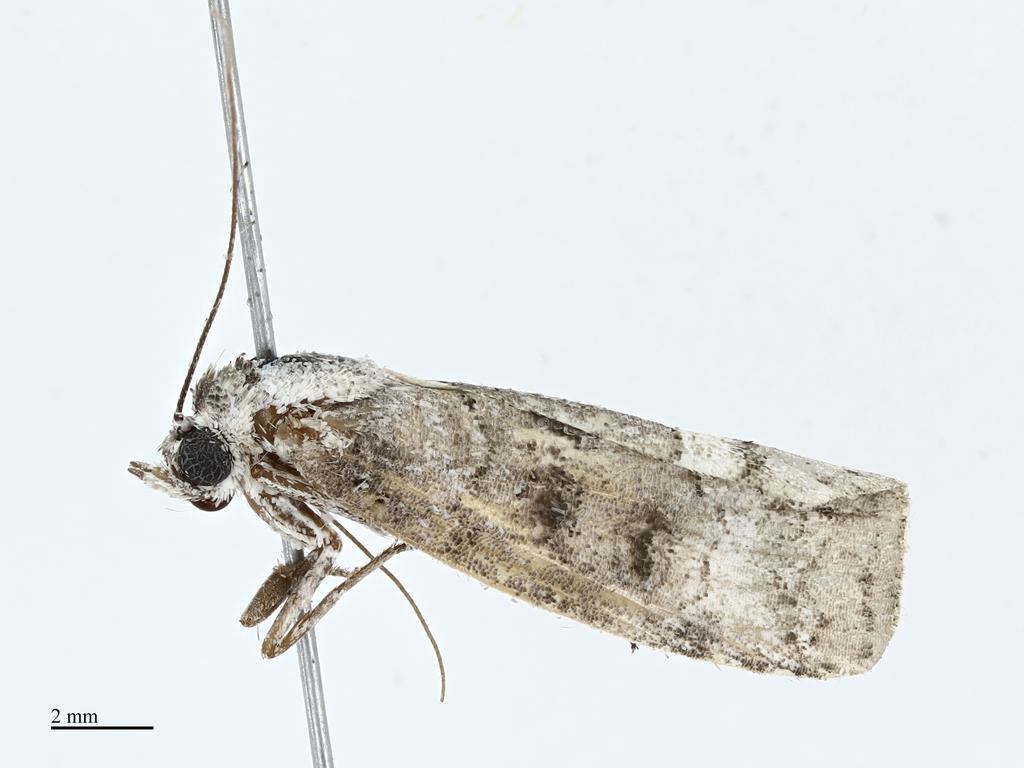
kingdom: Animalia
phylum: Arthropoda
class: Insecta
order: Lepidoptera
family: Nolidae
